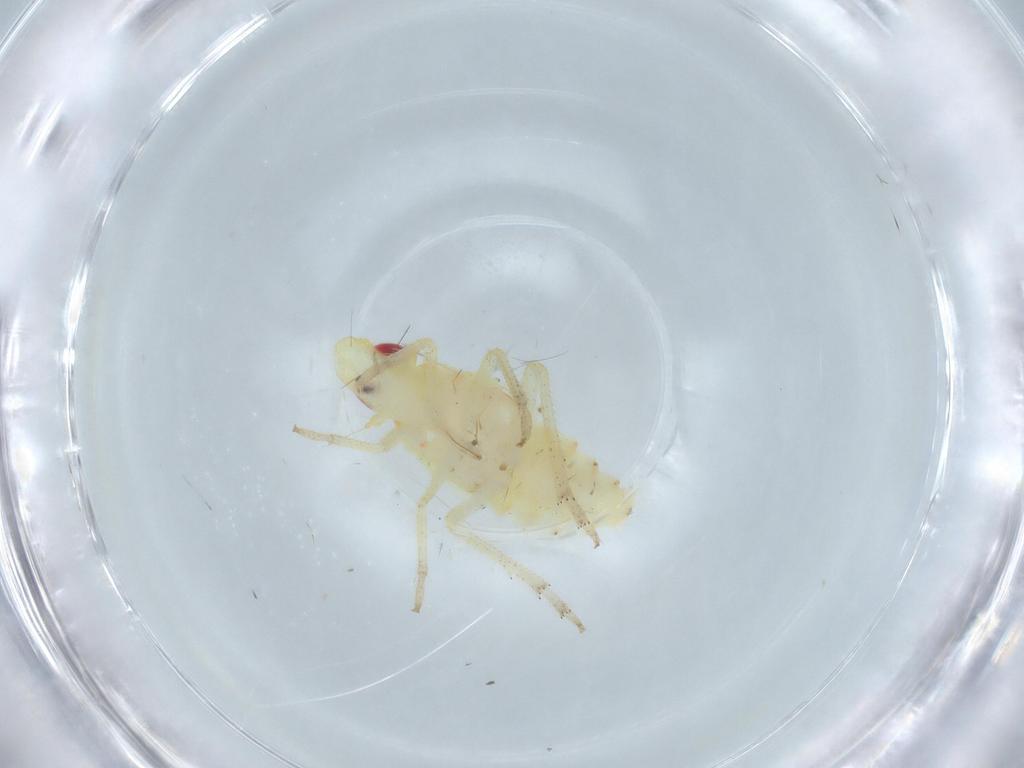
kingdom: Animalia
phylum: Arthropoda
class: Insecta
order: Hemiptera
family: Tropiduchidae
